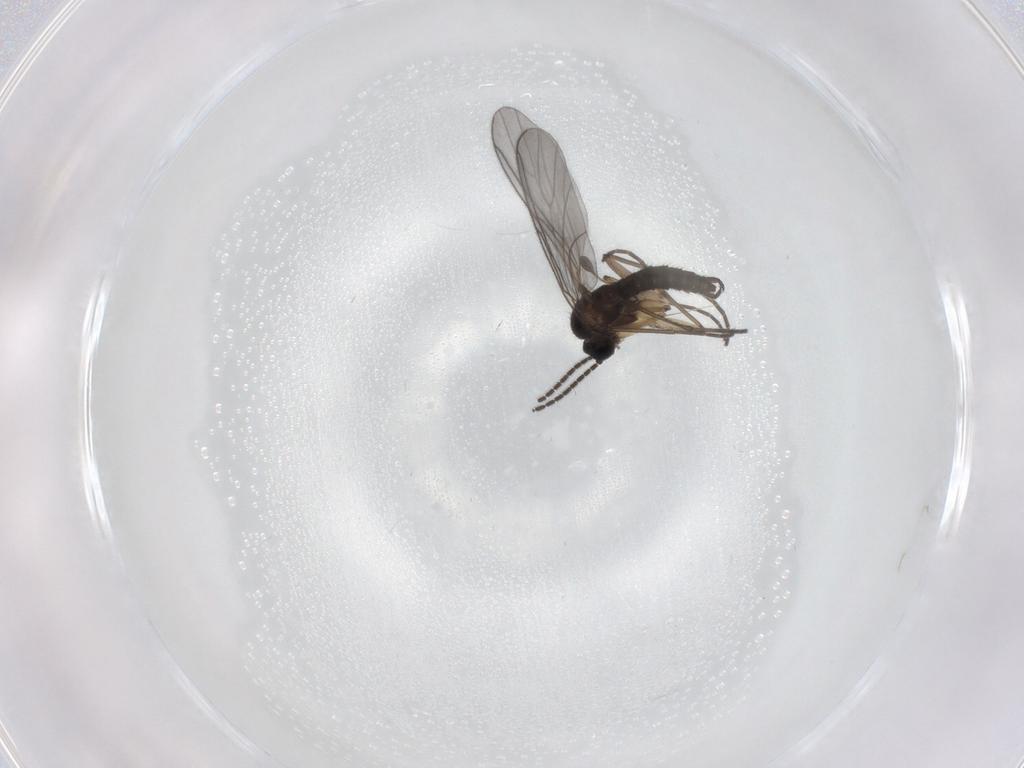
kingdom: Animalia
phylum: Arthropoda
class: Insecta
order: Diptera
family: Sciaridae
